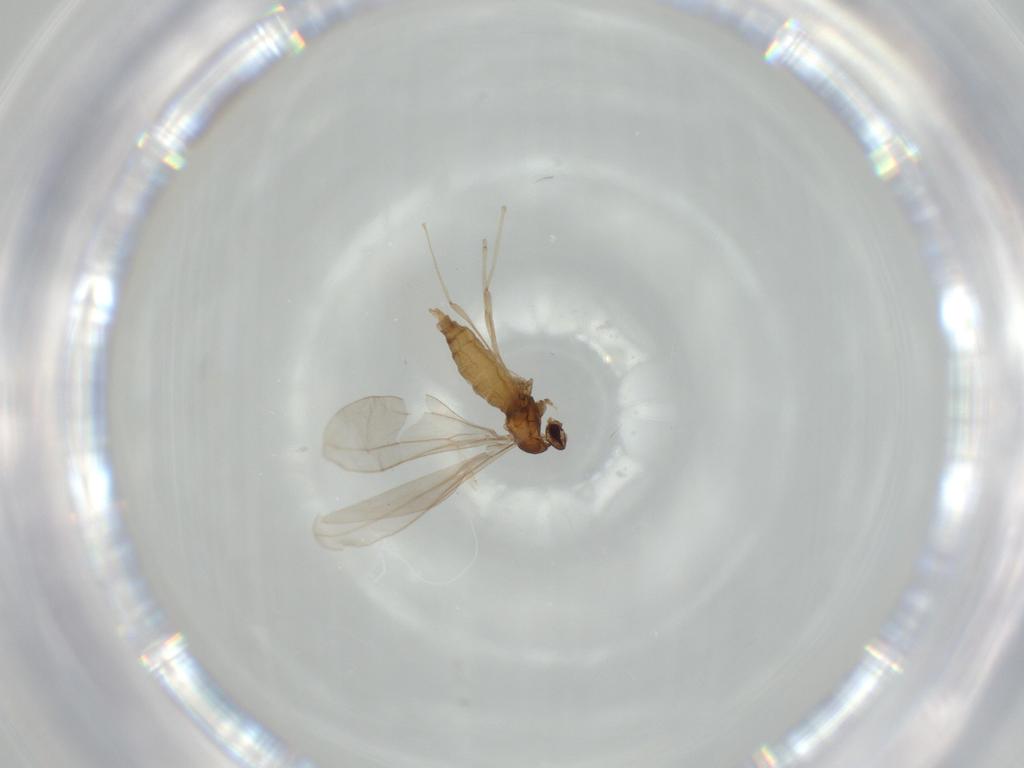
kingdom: Animalia
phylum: Arthropoda
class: Insecta
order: Diptera
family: Cecidomyiidae
